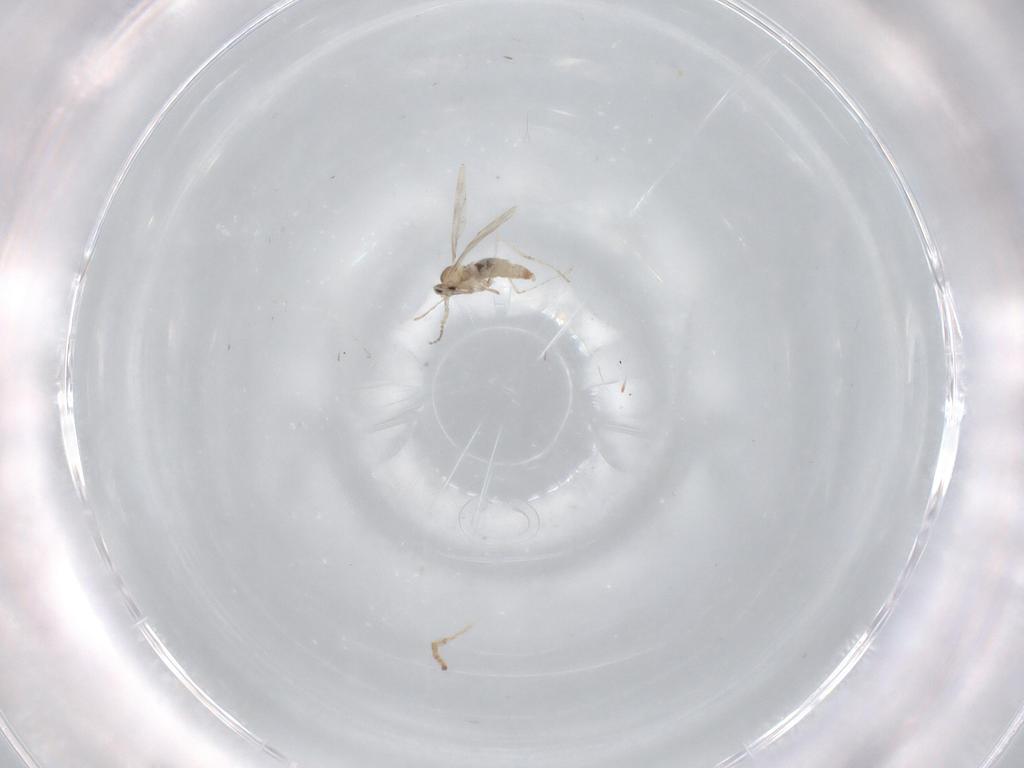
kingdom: Animalia
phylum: Arthropoda
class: Insecta
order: Diptera
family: Cecidomyiidae
